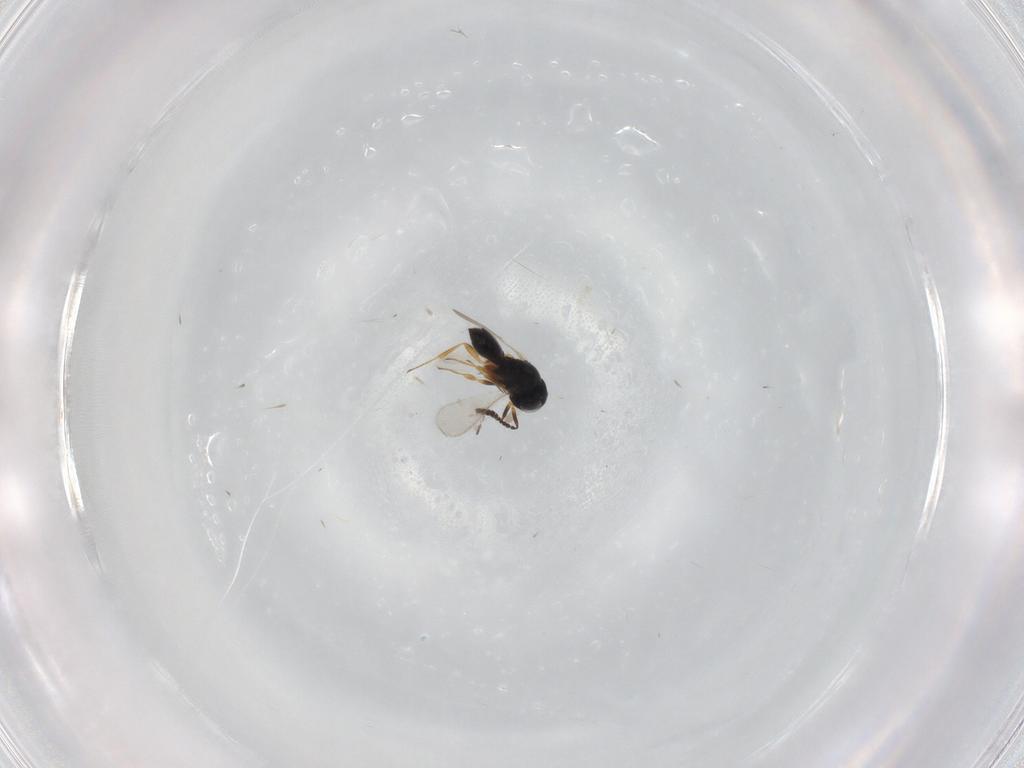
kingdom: Animalia
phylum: Arthropoda
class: Insecta
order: Hymenoptera
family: Scelionidae
